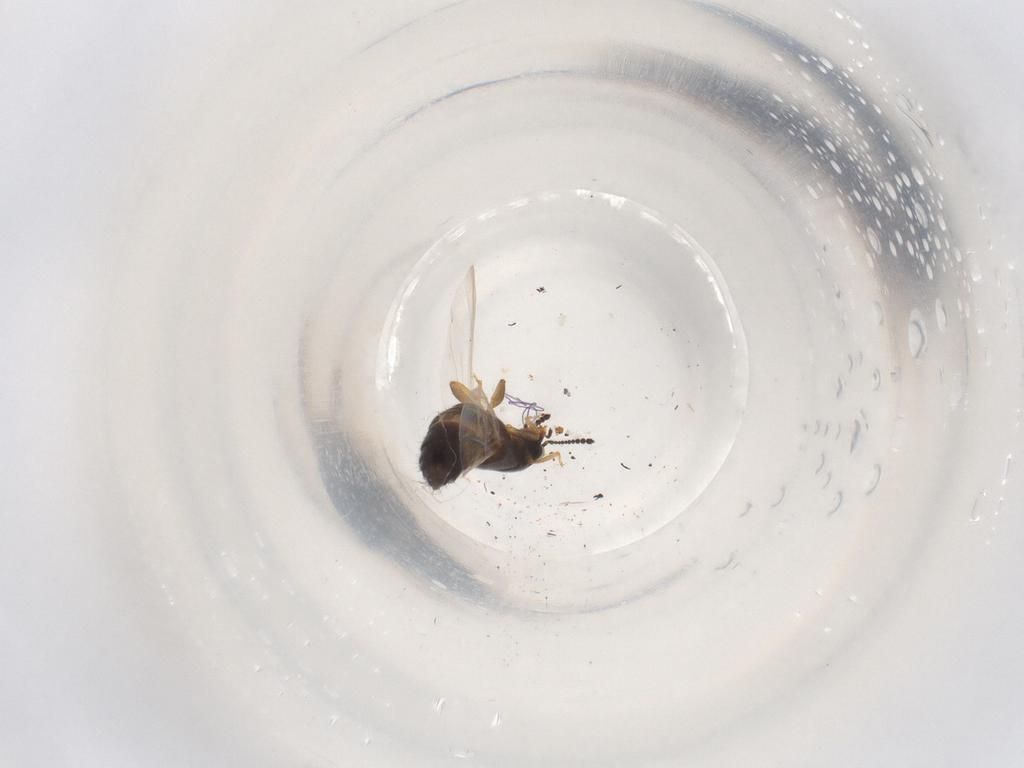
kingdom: Animalia
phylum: Arthropoda
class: Insecta
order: Coleoptera
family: Staphylinidae
